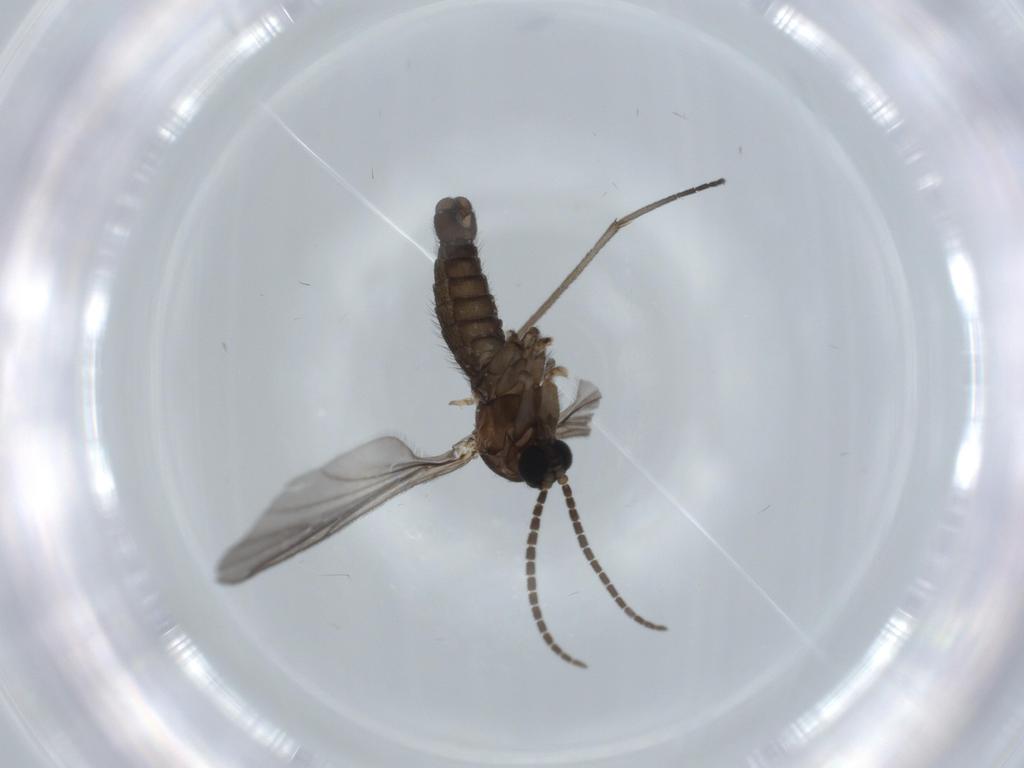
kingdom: Animalia
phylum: Arthropoda
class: Insecta
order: Diptera
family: Sciaridae
